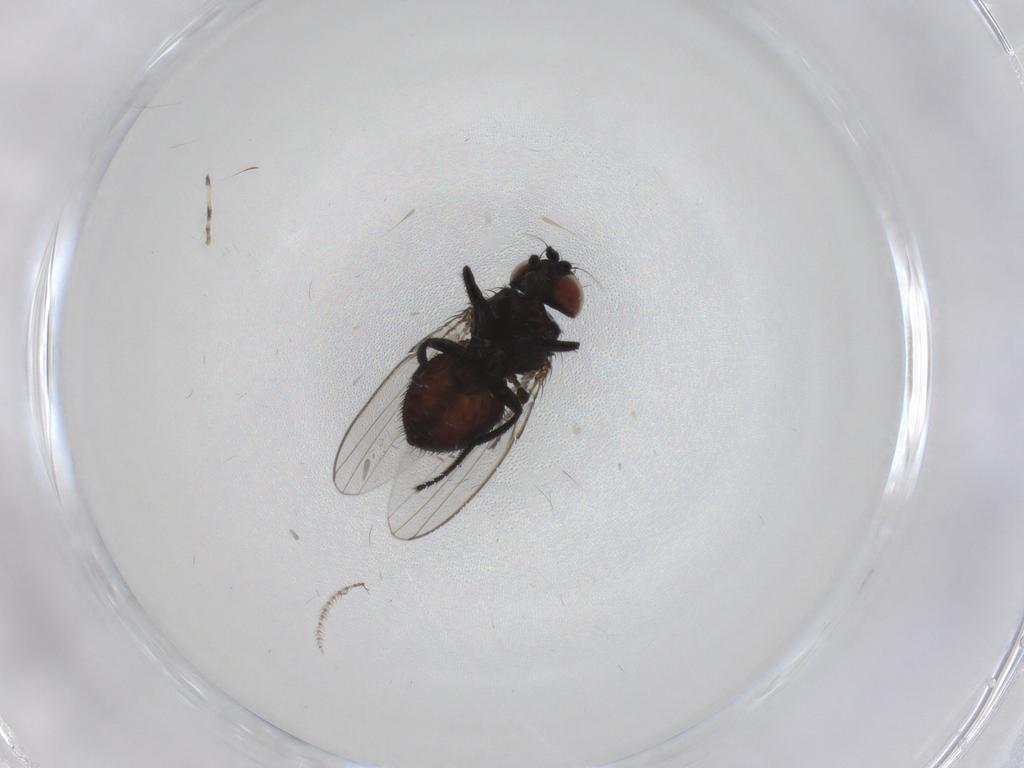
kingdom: Animalia
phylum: Arthropoda
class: Insecta
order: Diptera
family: Milichiidae
